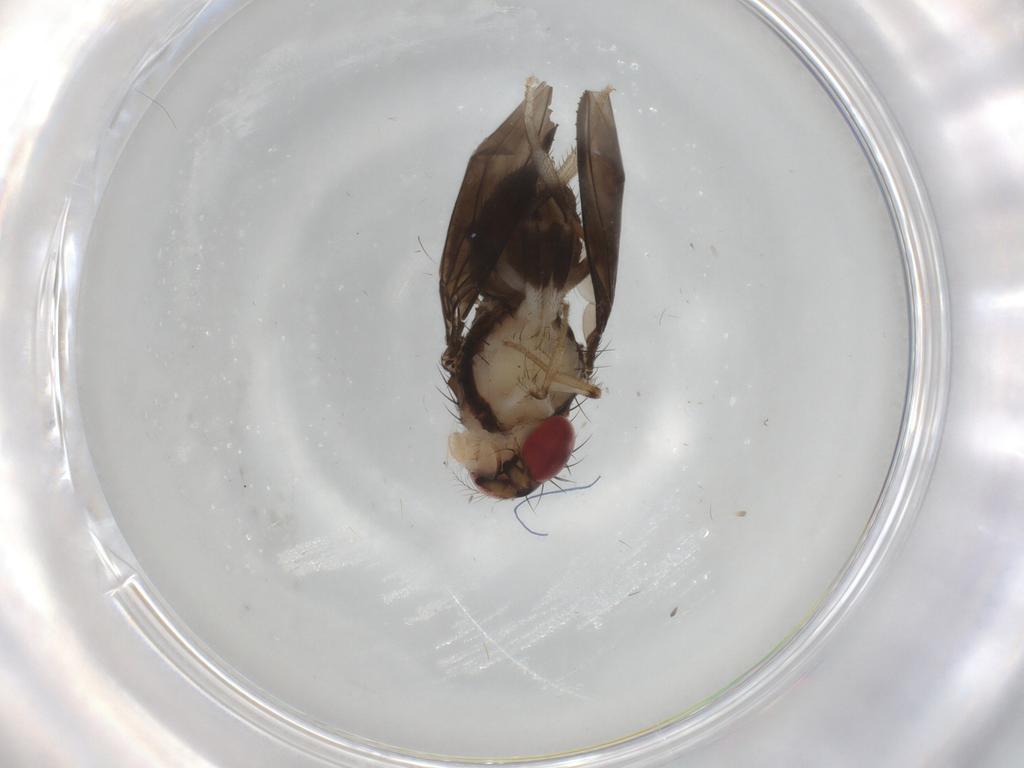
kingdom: Animalia
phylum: Arthropoda
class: Insecta
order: Diptera
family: Drosophilidae
